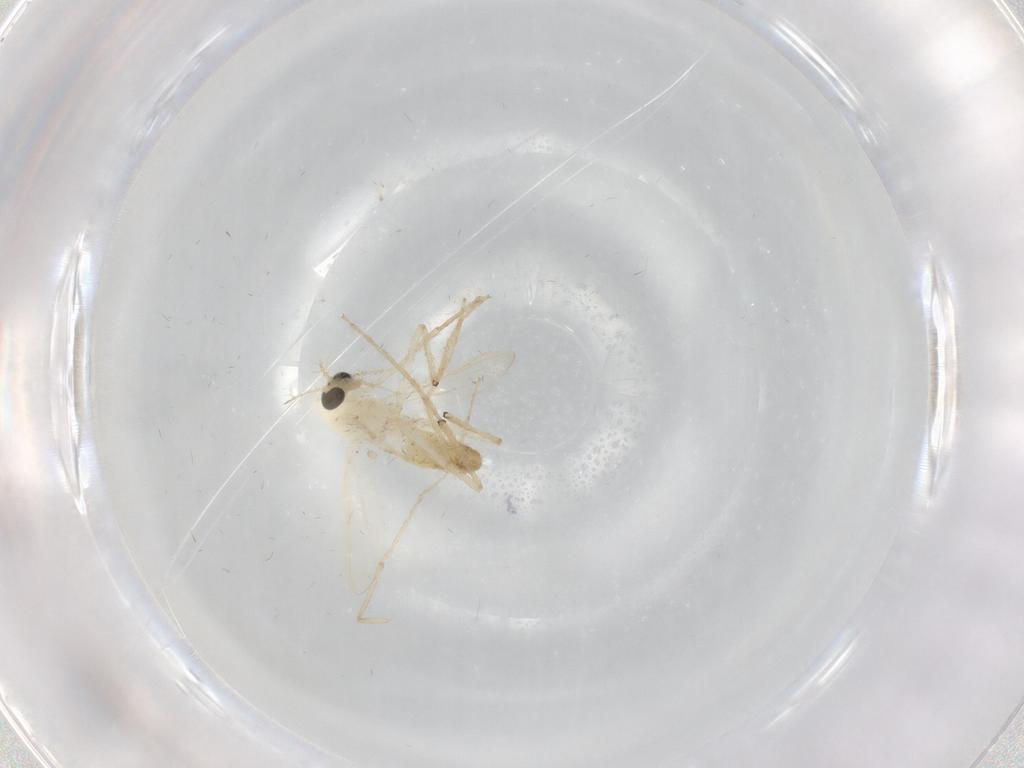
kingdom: Animalia
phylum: Arthropoda
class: Insecta
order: Diptera
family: Chironomidae
